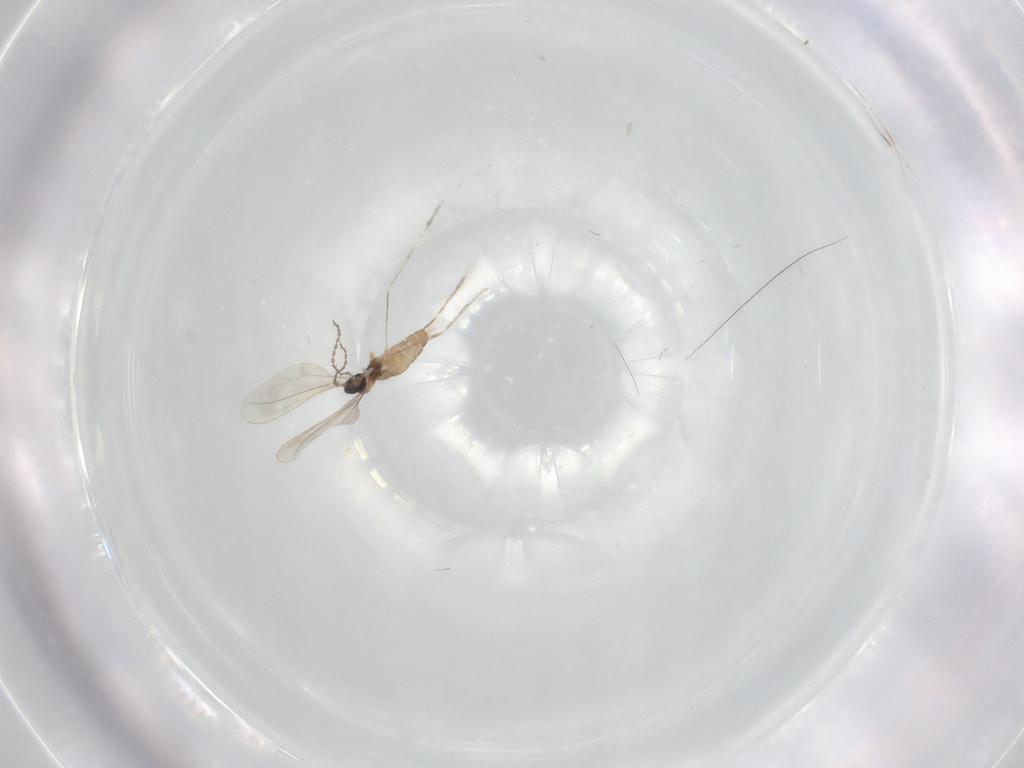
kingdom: Animalia
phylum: Arthropoda
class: Insecta
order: Diptera
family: Cecidomyiidae
